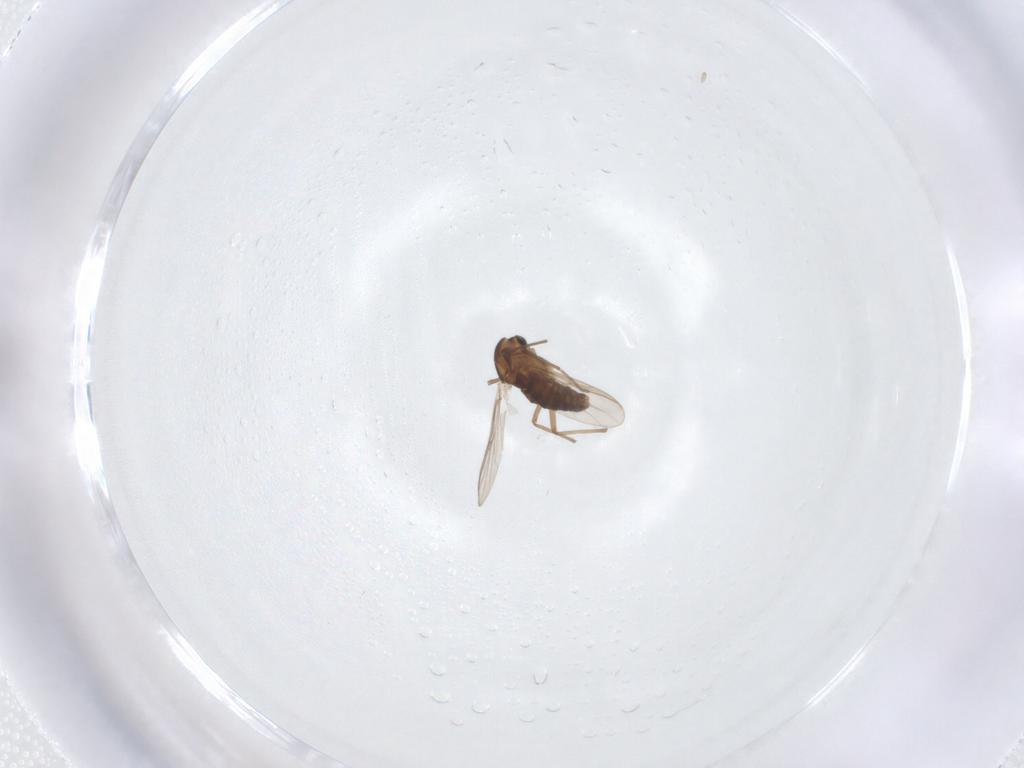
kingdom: Animalia
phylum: Arthropoda
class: Insecta
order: Diptera
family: Chironomidae
